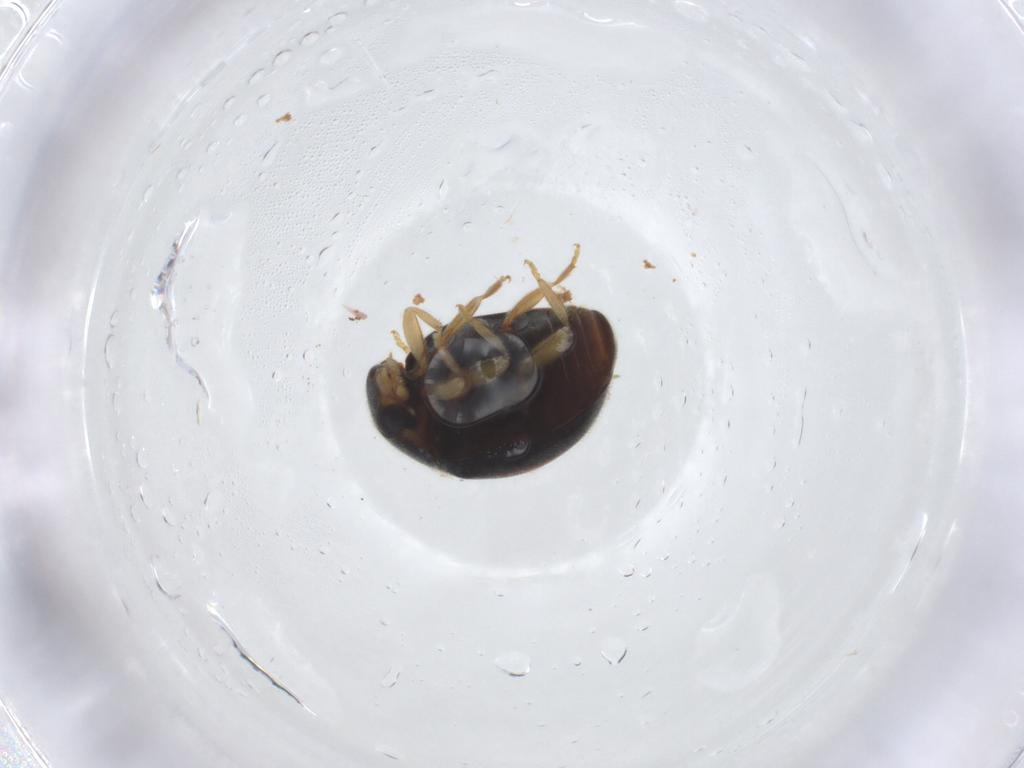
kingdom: Animalia
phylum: Arthropoda
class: Insecta
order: Coleoptera
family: Coccinellidae
